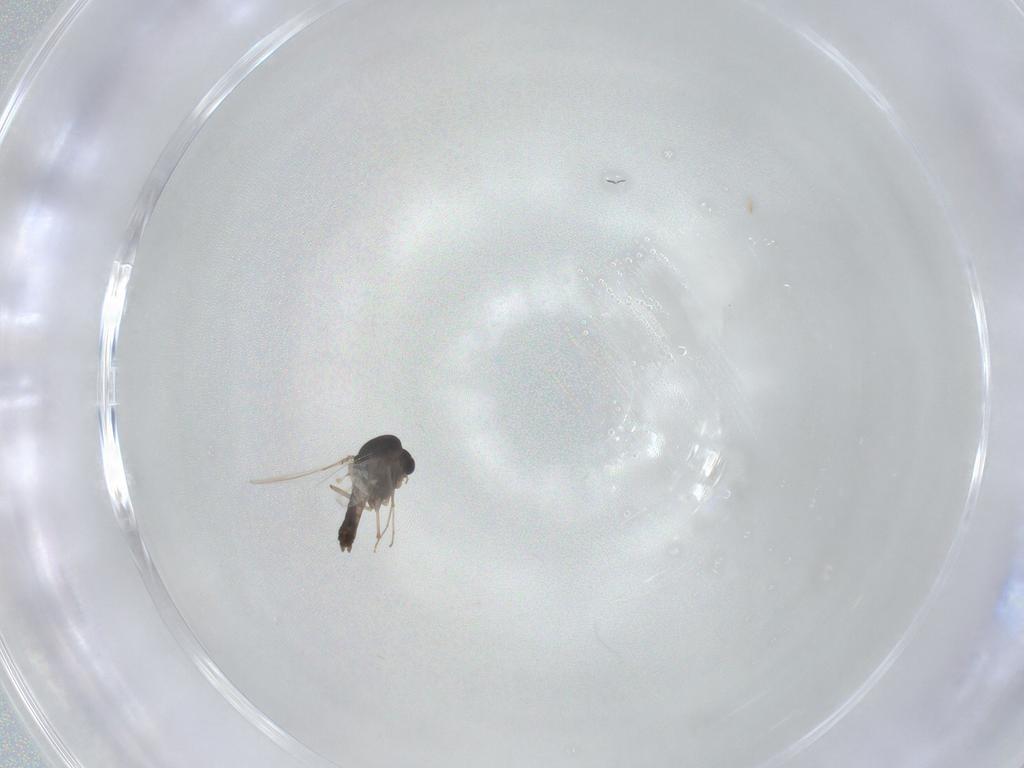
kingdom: Animalia
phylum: Arthropoda
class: Insecta
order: Diptera
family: Chironomidae
